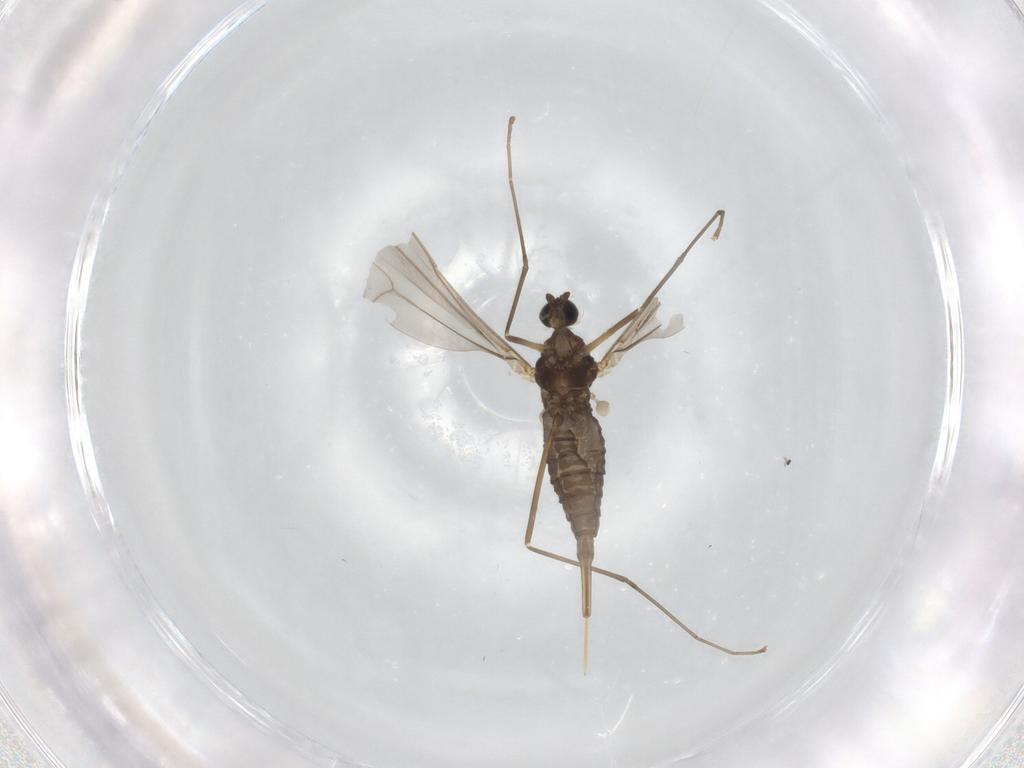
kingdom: Animalia
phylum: Arthropoda
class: Insecta
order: Diptera
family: Cecidomyiidae
